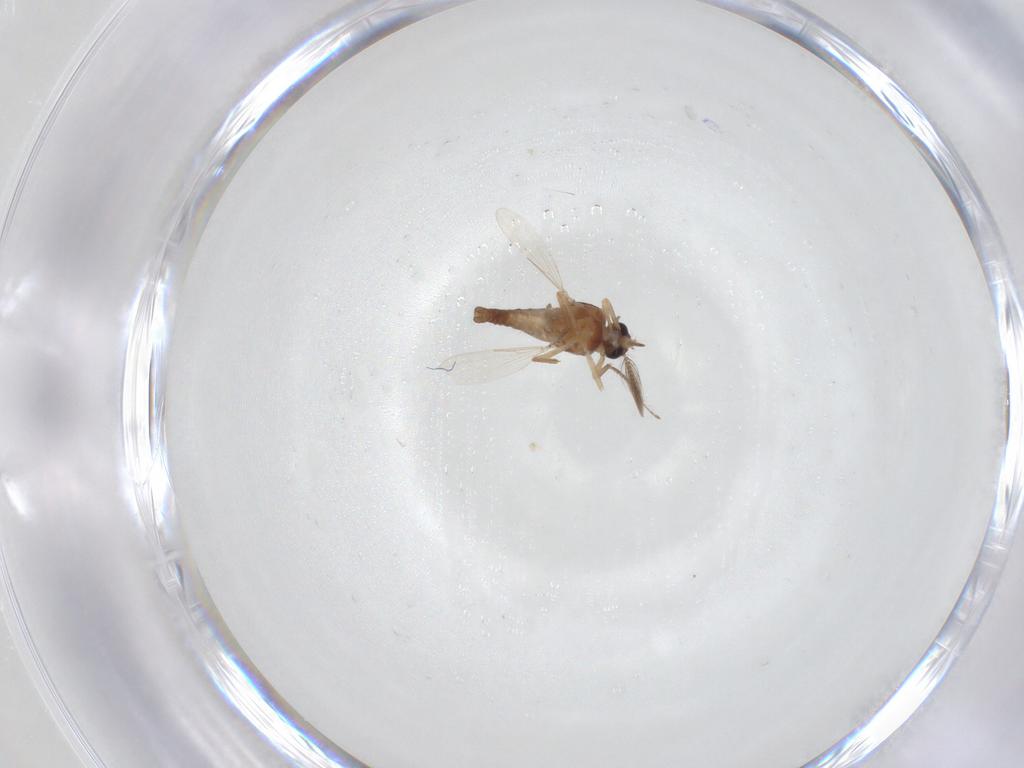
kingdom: Animalia
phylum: Arthropoda
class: Insecta
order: Diptera
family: Ceratopogonidae
